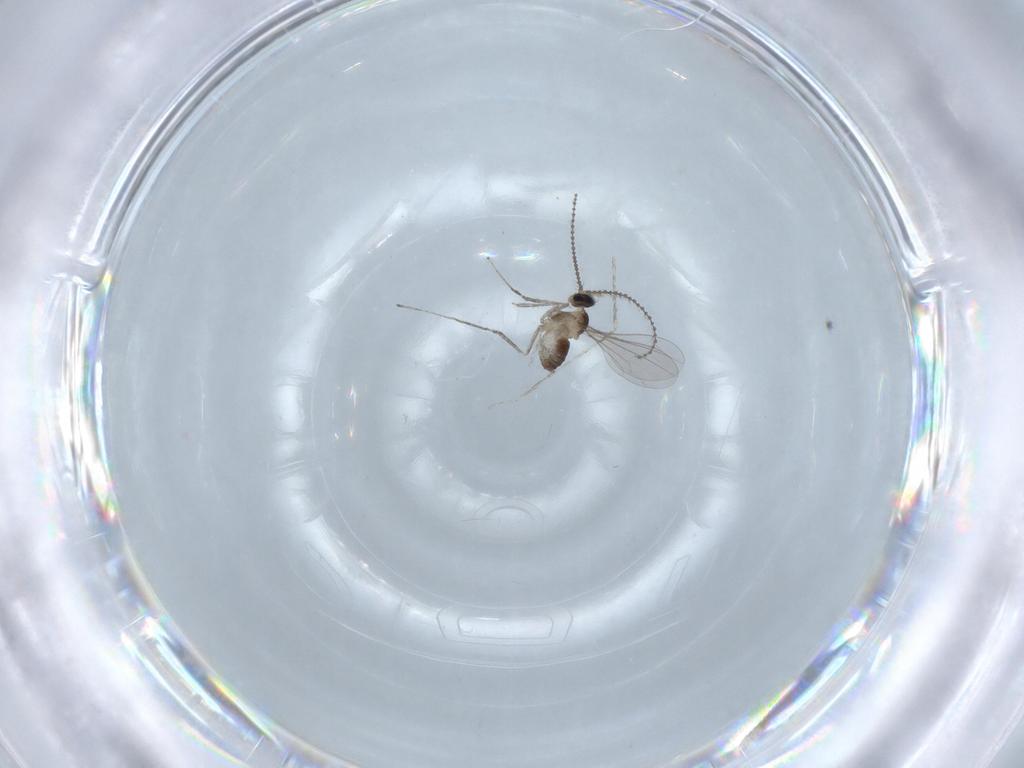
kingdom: Animalia
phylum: Arthropoda
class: Insecta
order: Diptera
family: Cecidomyiidae
